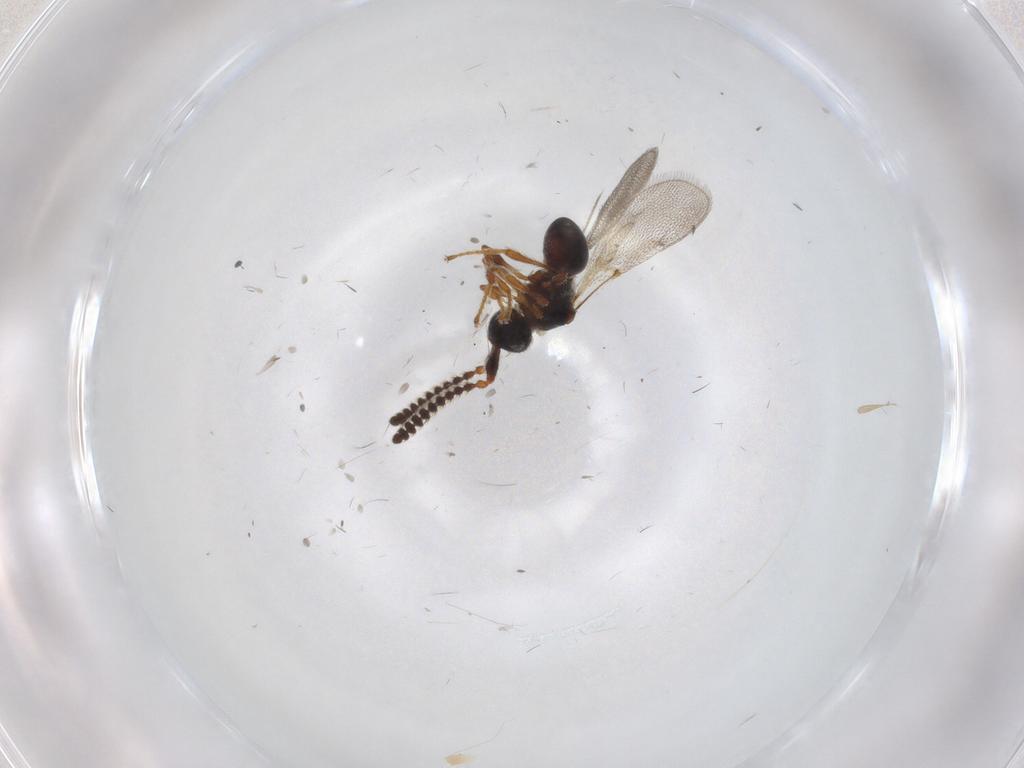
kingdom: Animalia
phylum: Arthropoda
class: Insecta
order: Hymenoptera
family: Diapriidae
